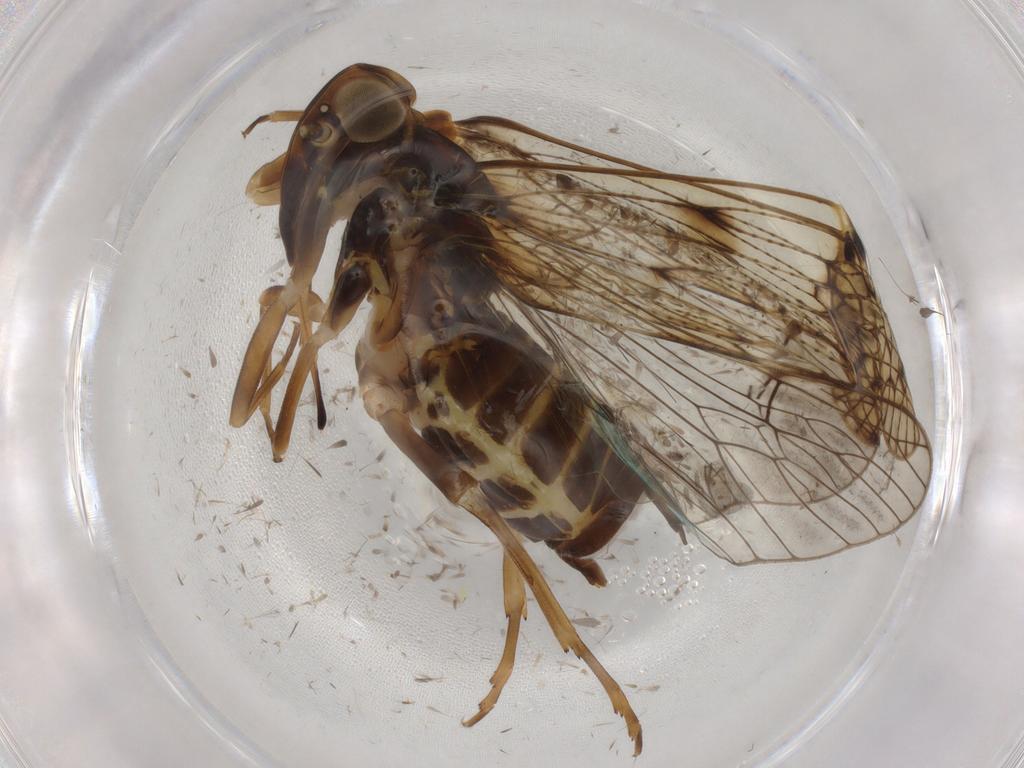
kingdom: Animalia
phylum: Arthropoda
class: Insecta
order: Hemiptera
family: Cixiidae
